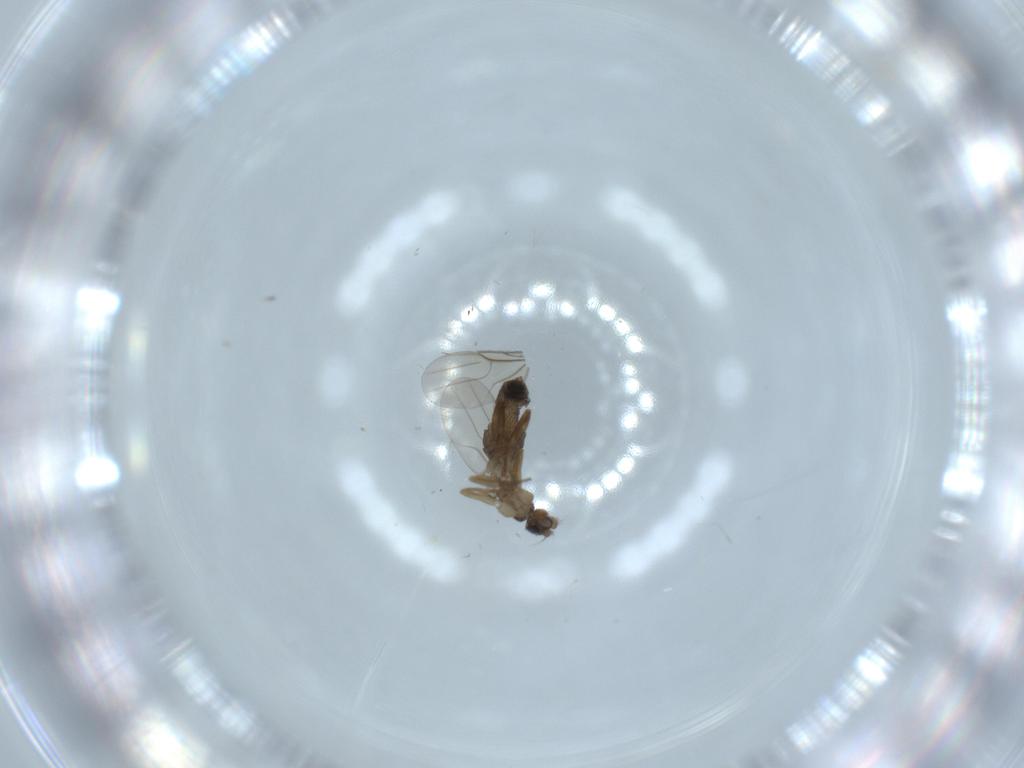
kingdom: Animalia
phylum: Arthropoda
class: Insecta
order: Diptera
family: Phoridae
